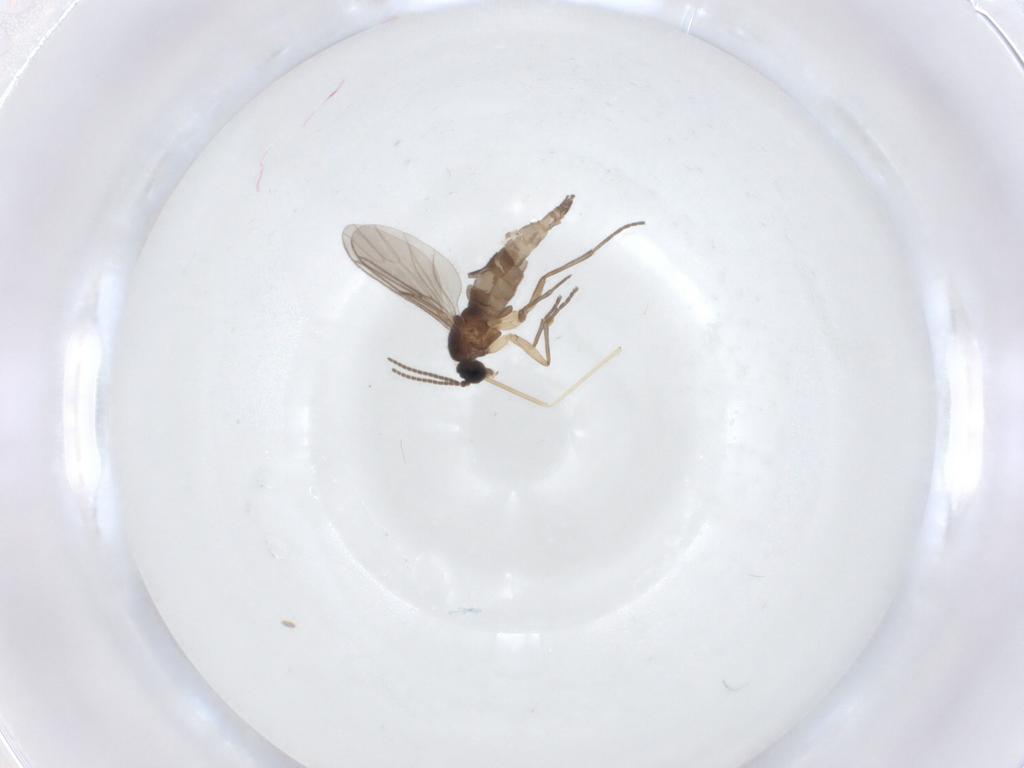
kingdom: Animalia
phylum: Arthropoda
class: Insecta
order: Diptera
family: Sciaridae
